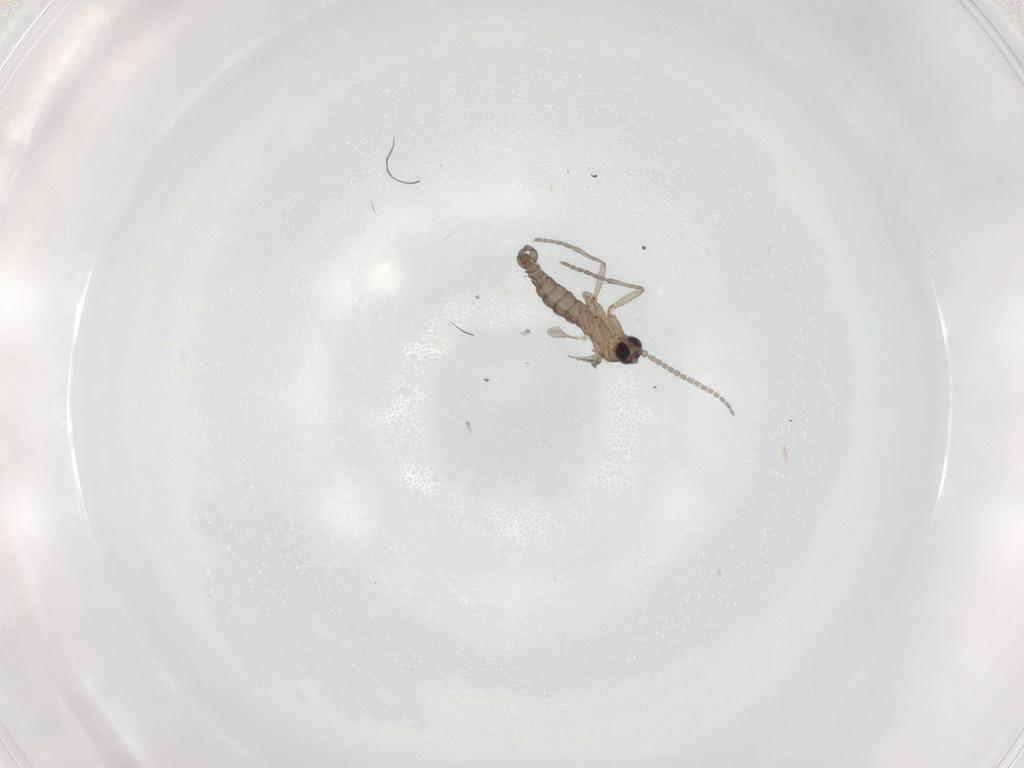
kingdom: Animalia
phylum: Arthropoda
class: Insecta
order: Diptera
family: Sciaridae
